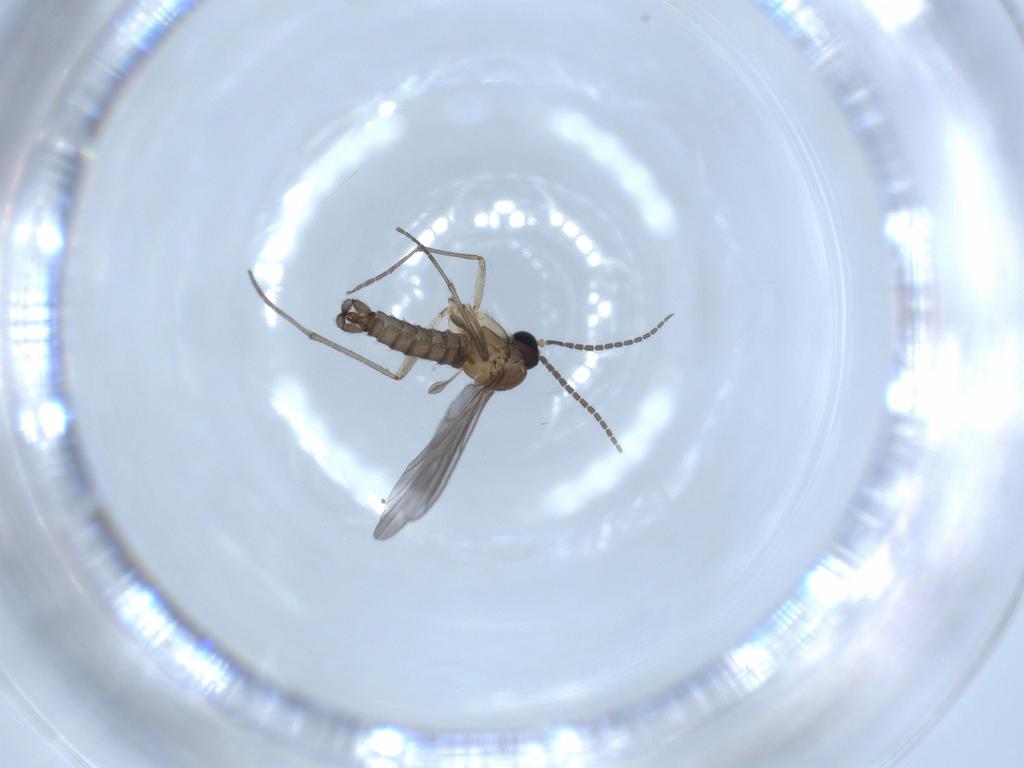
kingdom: Animalia
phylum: Arthropoda
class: Insecta
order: Diptera
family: Sciaridae
